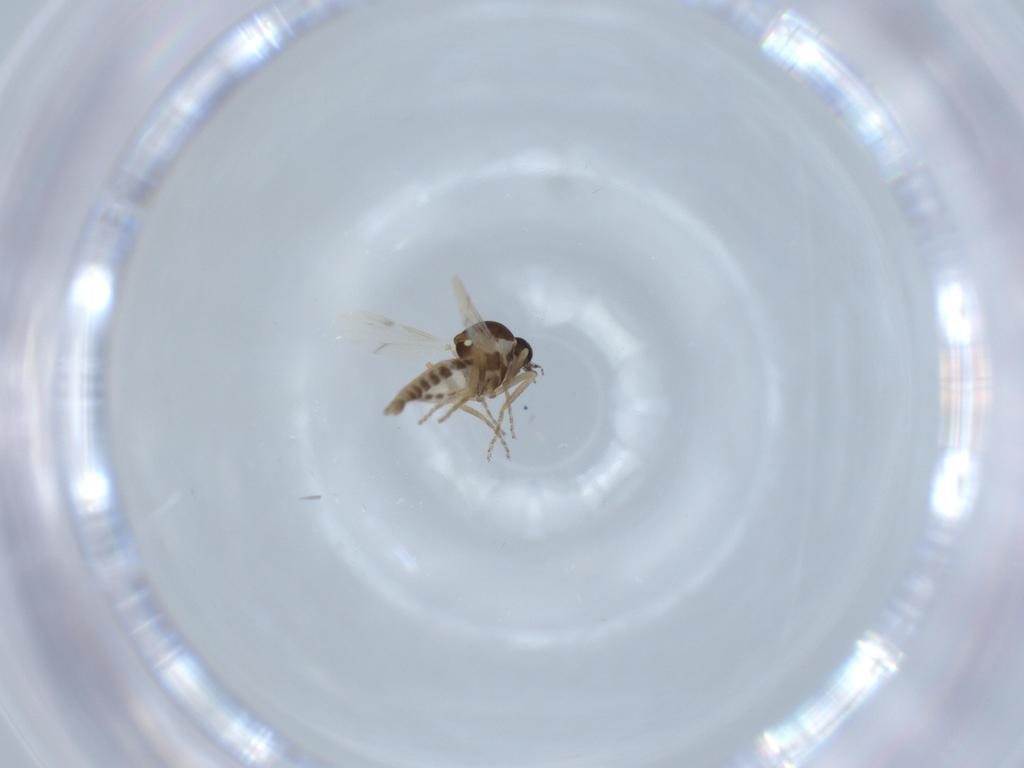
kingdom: Animalia
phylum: Arthropoda
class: Insecta
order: Diptera
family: Ceratopogonidae
